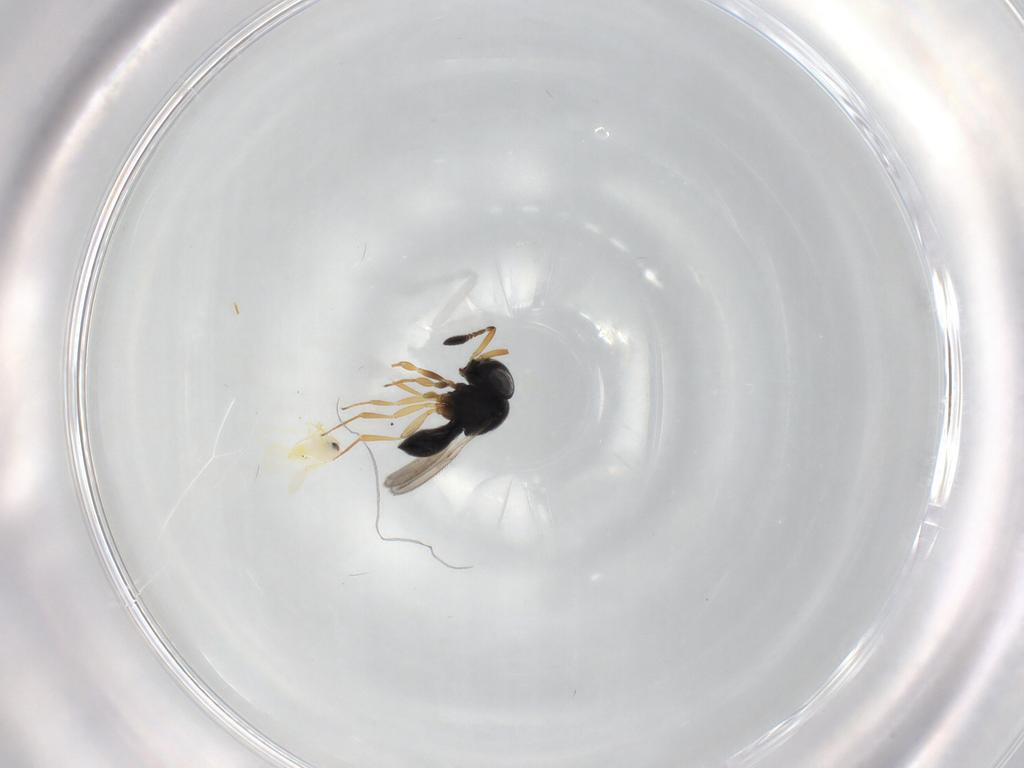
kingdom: Animalia
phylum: Arthropoda
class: Insecta
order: Hymenoptera
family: Scelionidae
